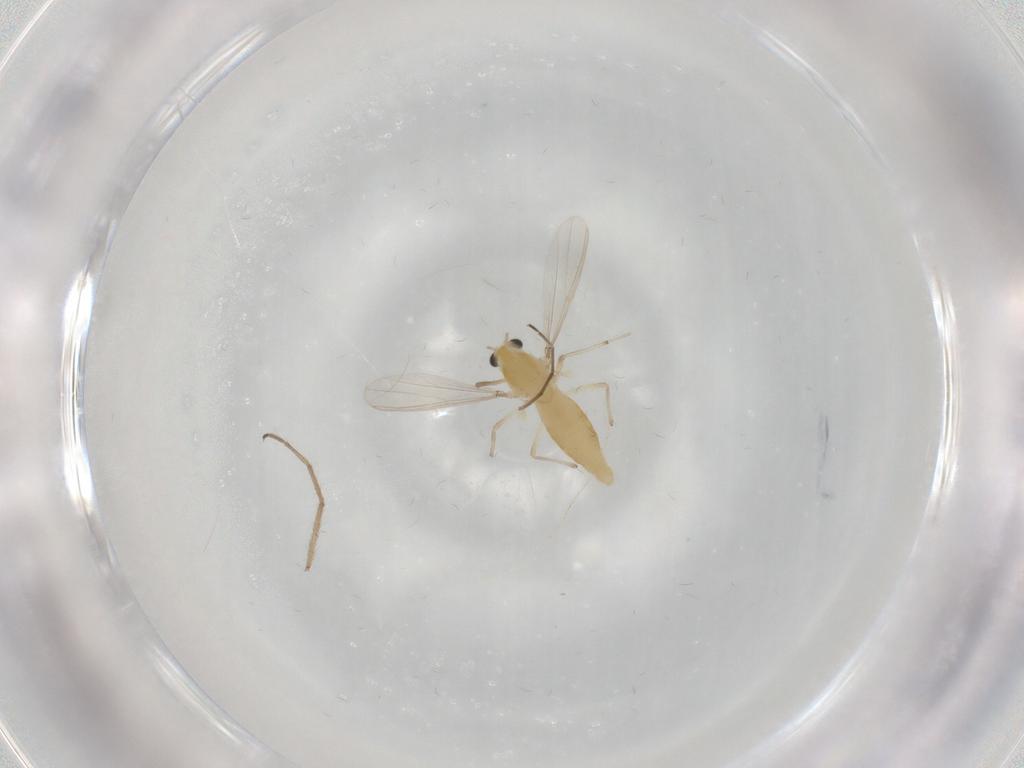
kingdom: Animalia
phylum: Arthropoda
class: Insecta
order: Diptera
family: Chironomidae
